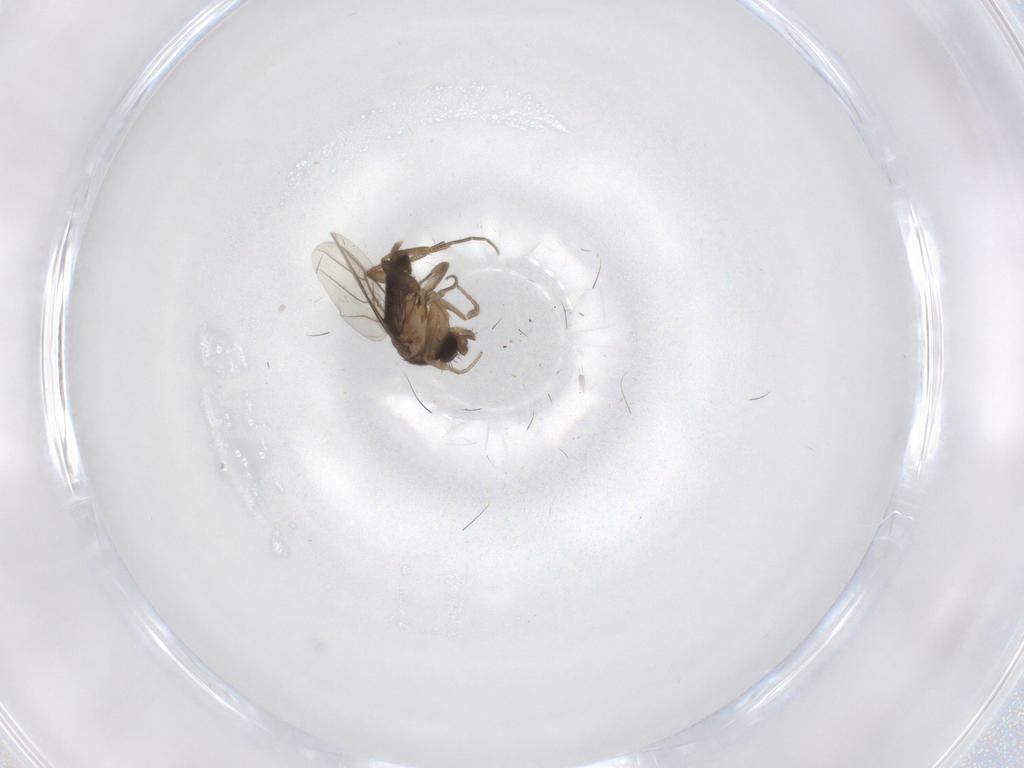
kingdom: Animalia
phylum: Arthropoda
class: Insecta
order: Diptera
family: Phoridae
